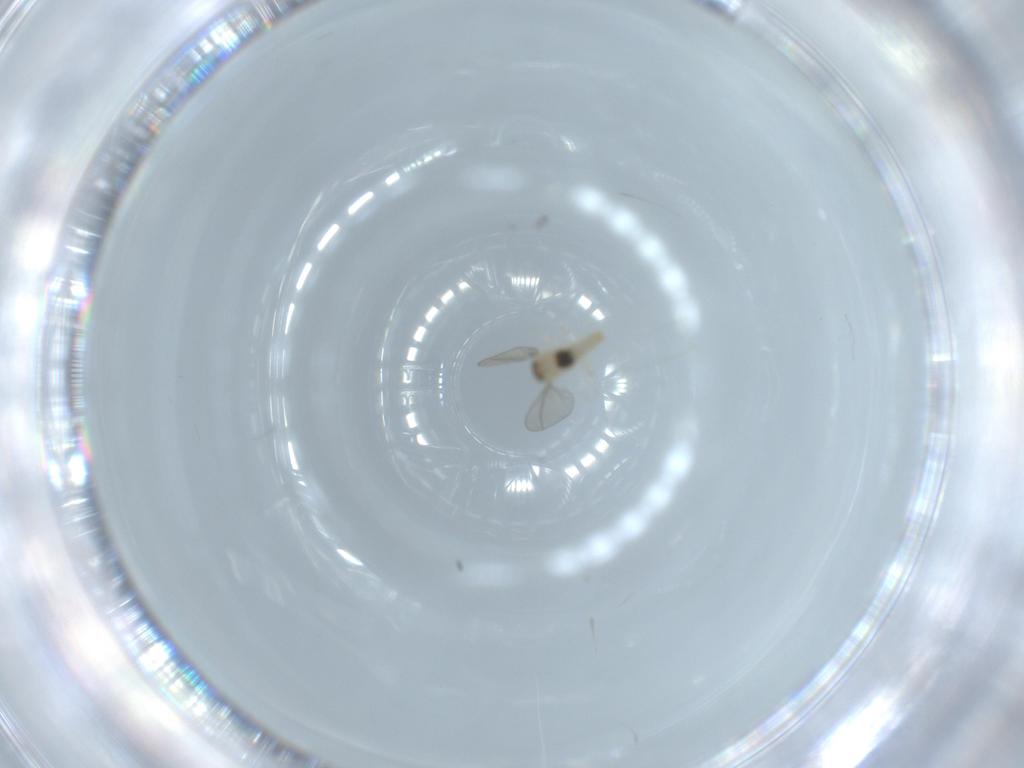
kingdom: Animalia
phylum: Arthropoda
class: Insecta
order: Diptera
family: Cecidomyiidae
